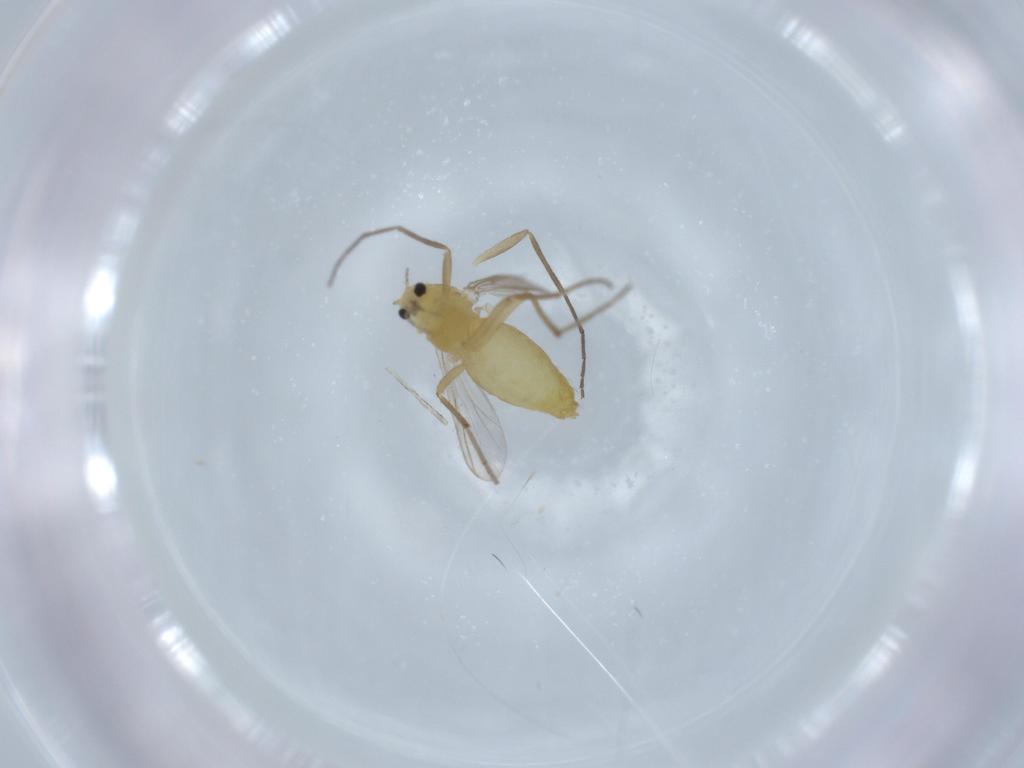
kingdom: Animalia
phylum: Arthropoda
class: Insecta
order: Diptera
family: Chironomidae
